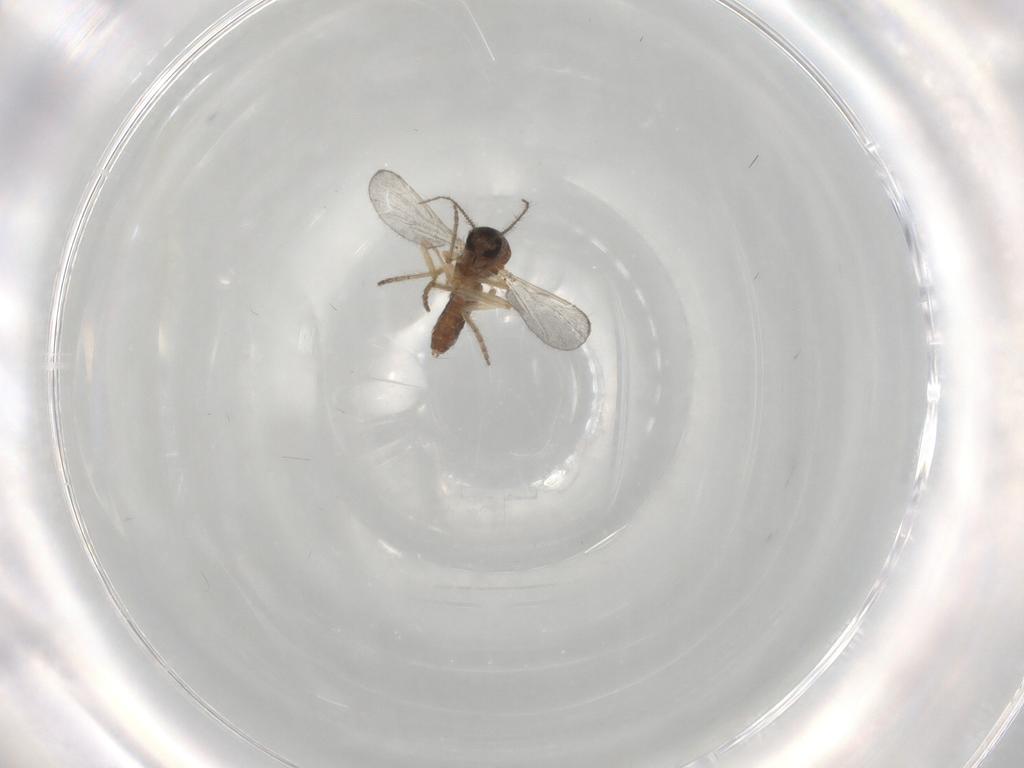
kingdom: Animalia
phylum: Arthropoda
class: Insecta
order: Diptera
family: Ceratopogonidae
